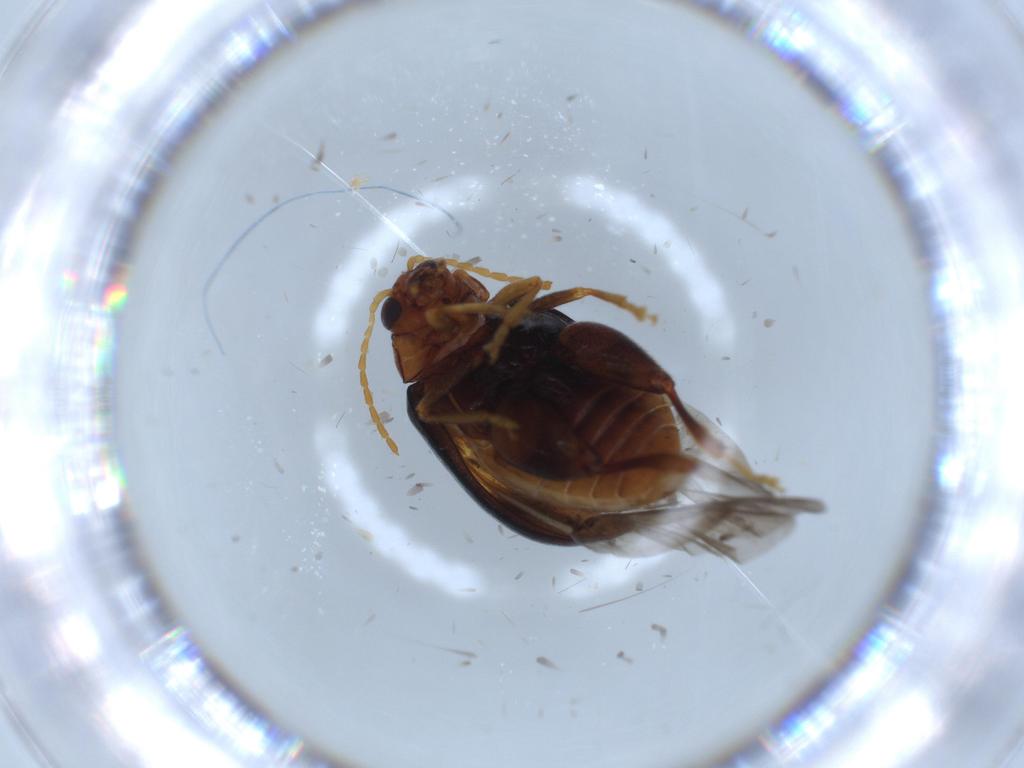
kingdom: Animalia
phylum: Arthropoda
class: Insecta
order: Coleoptera
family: Chrysomelidae
